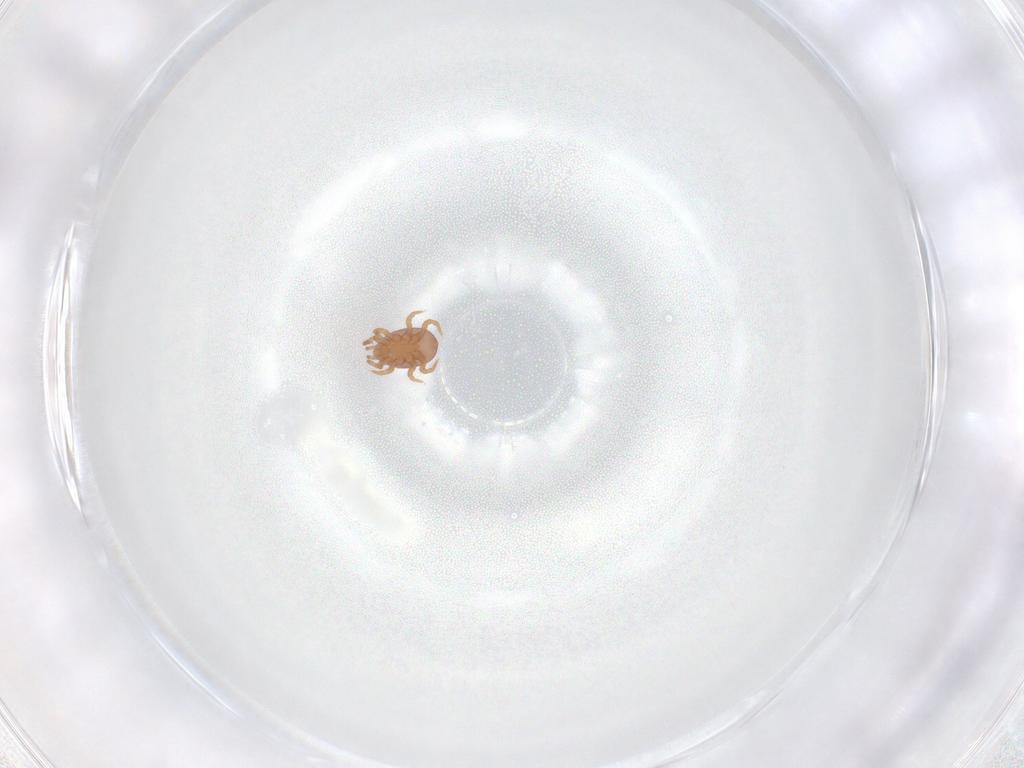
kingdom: Animalia
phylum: Arthropoda
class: Arachnida
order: Mesostigmata
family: Eviphididae
